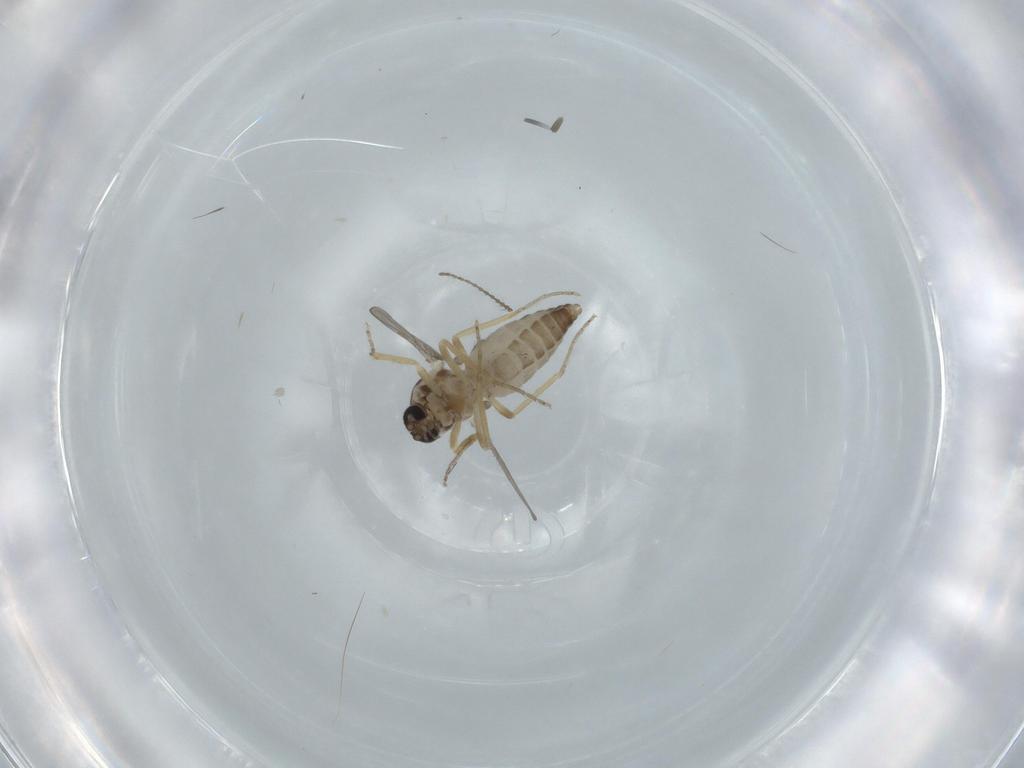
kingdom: Animalia
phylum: Arthropoda
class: Insecta
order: Diptera
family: Ceratopogonidae
